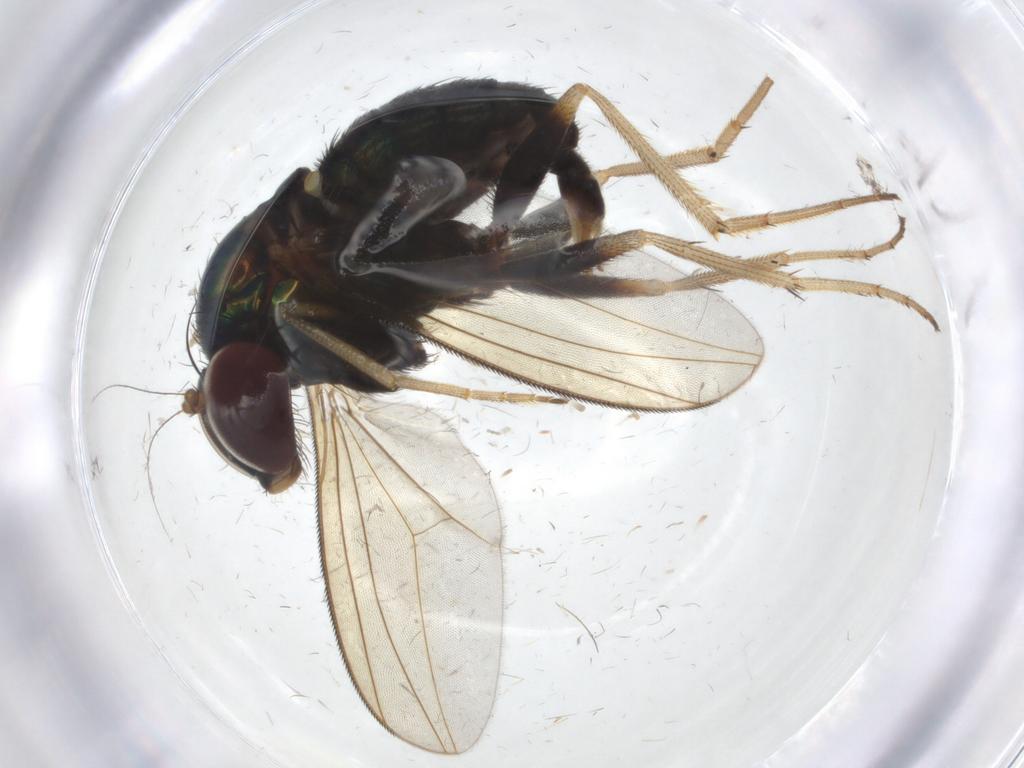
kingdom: Animalia
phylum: Arthropoda
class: Insecta
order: Diptera
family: Dolichopodidae
